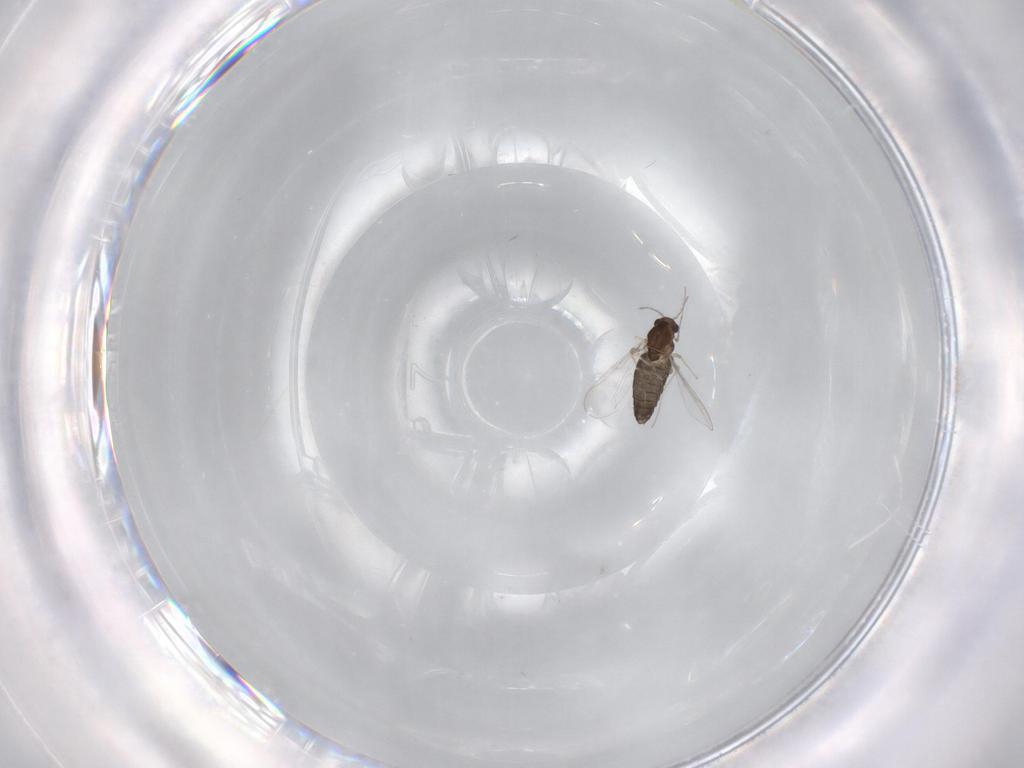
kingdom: Animalia
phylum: Arthropoda
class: Insecta
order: Diptera
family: Chironomidae
